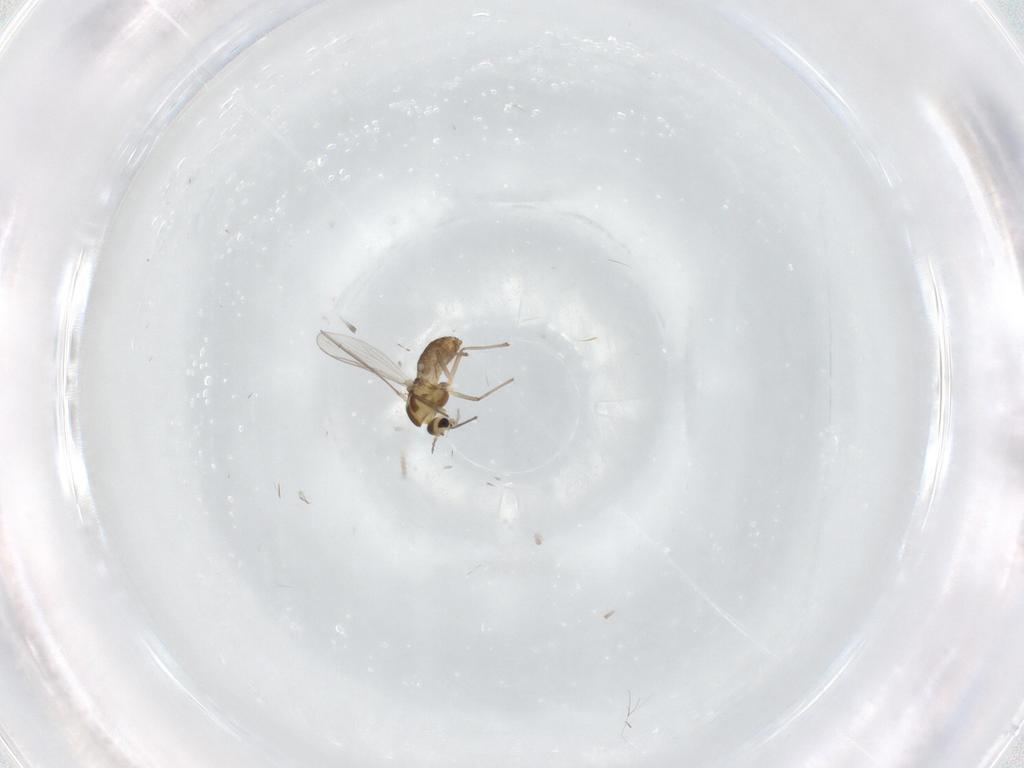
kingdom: Animalia
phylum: Arthropoda
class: Insecta
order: Diptera
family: Chironomidae
